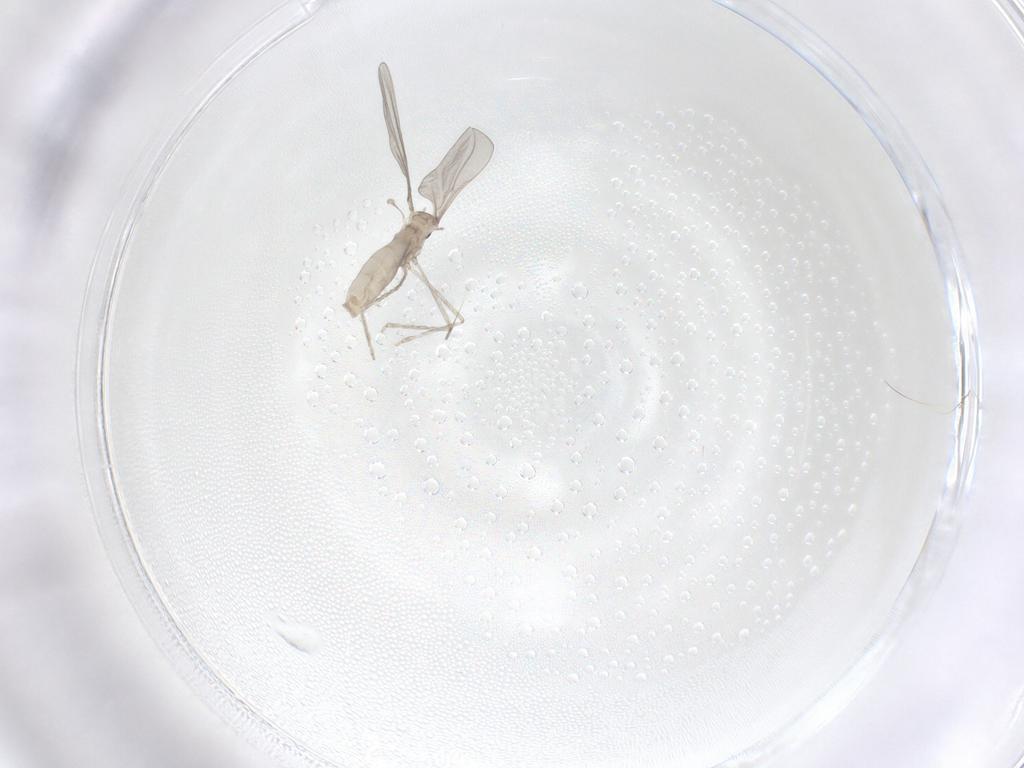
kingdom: Animalia
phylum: Arthropoda
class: Insecta
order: Diptera
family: Cecidomyiidae
